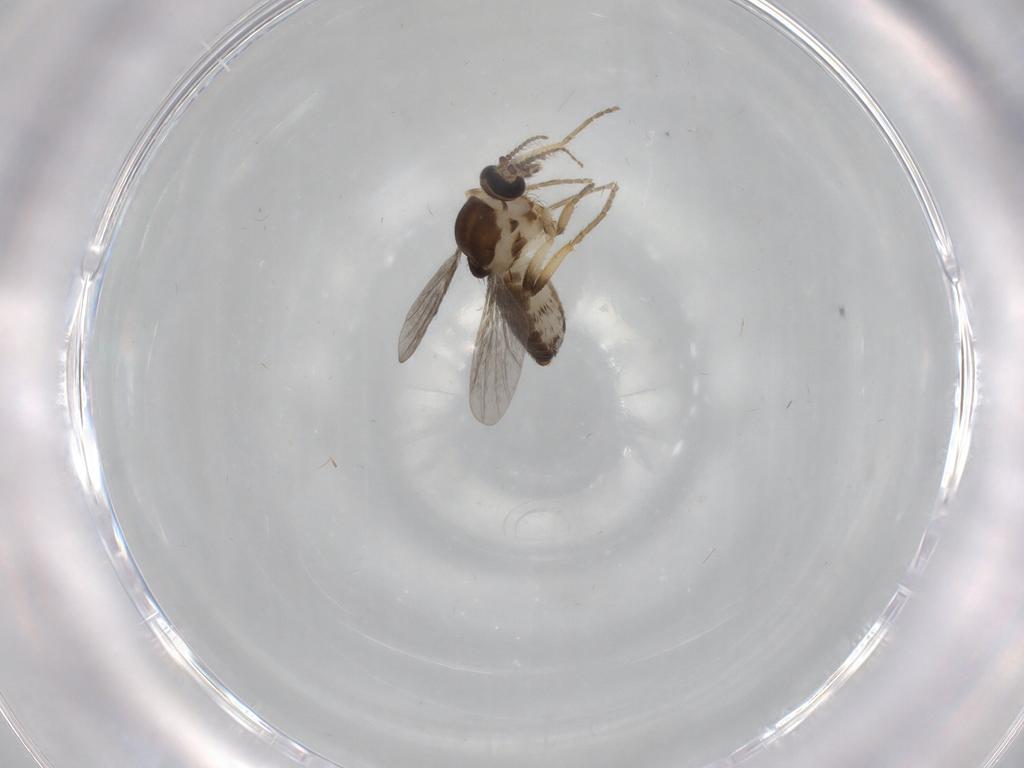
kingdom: Animalia
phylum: Arthropoda
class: Insecta
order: Diptera
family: Ceratopogonidae
